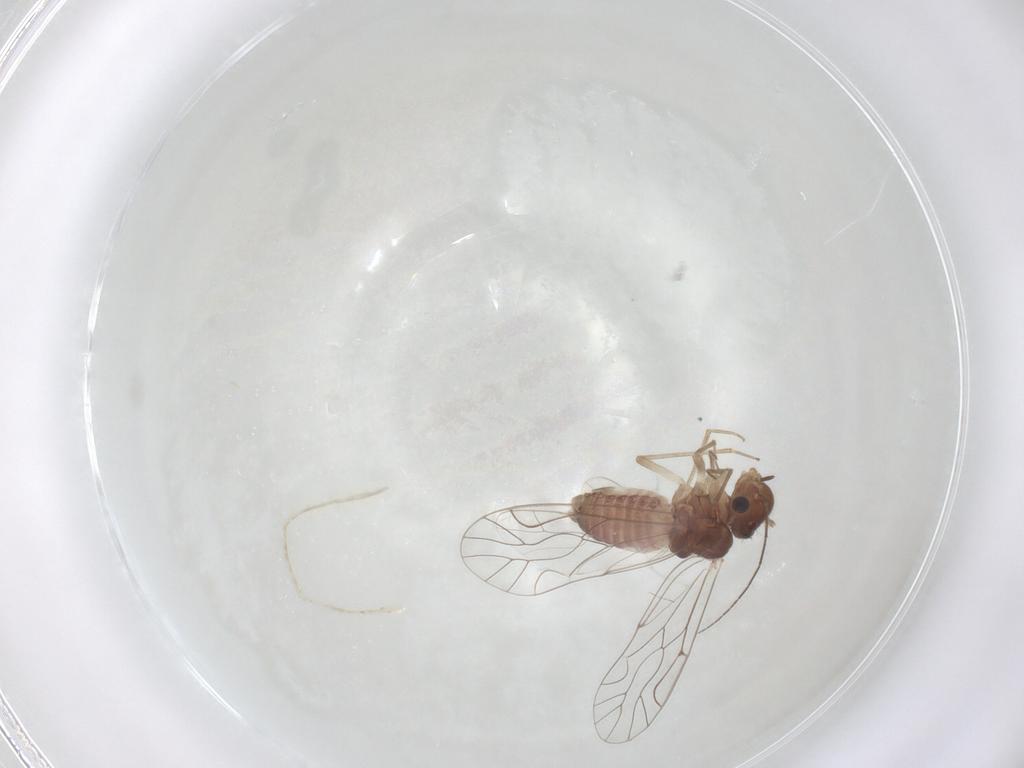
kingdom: Animalia
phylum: Arthropoda
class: Insecta
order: Psocodea
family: Lachesillidae
